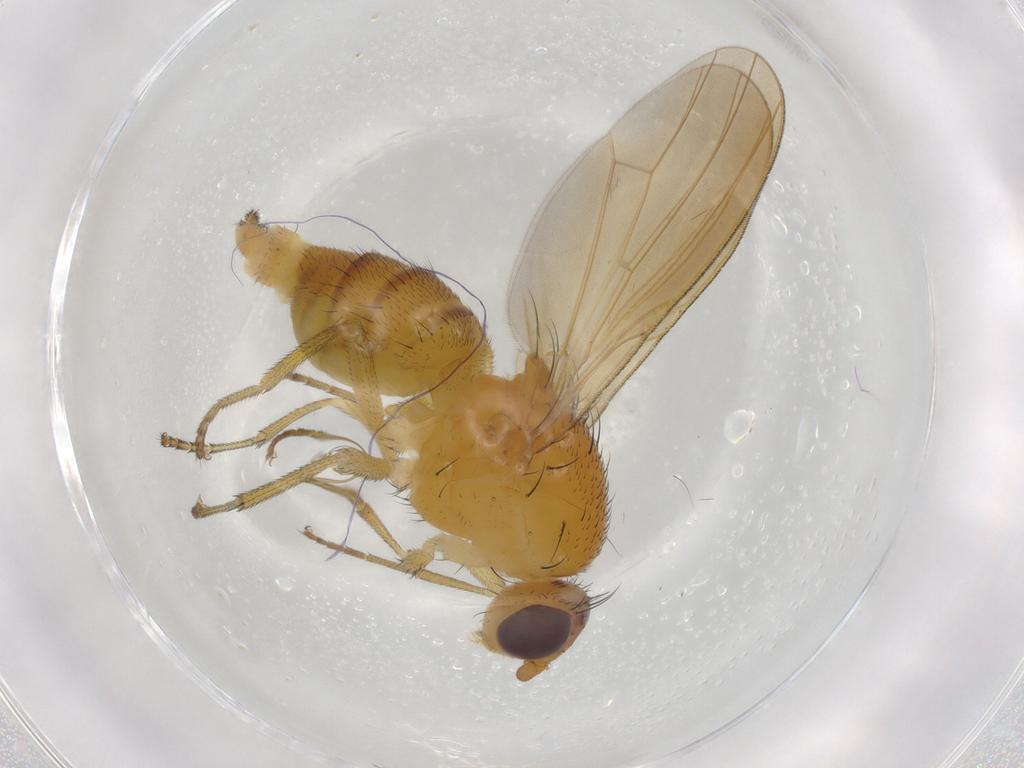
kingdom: Animalia
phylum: Arthropoda
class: Insecta
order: Diptera
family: Lauxaniidae
